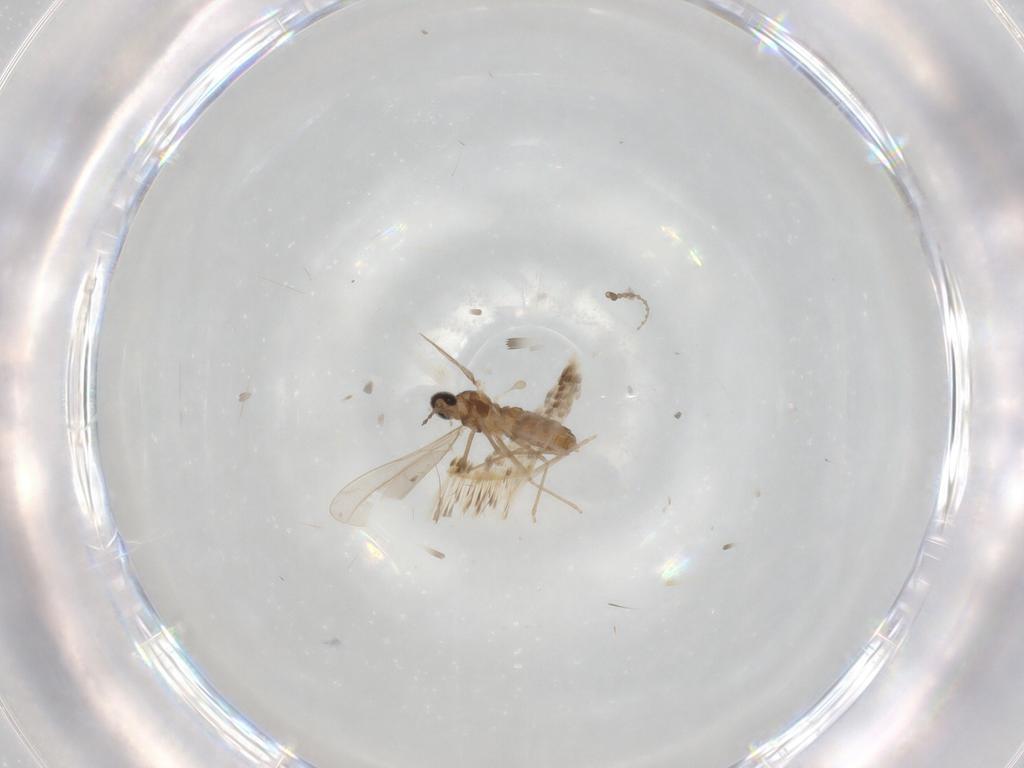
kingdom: Animalia
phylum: Arthropoda
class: Insecta
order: Diptera
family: Cecidomyiidae
